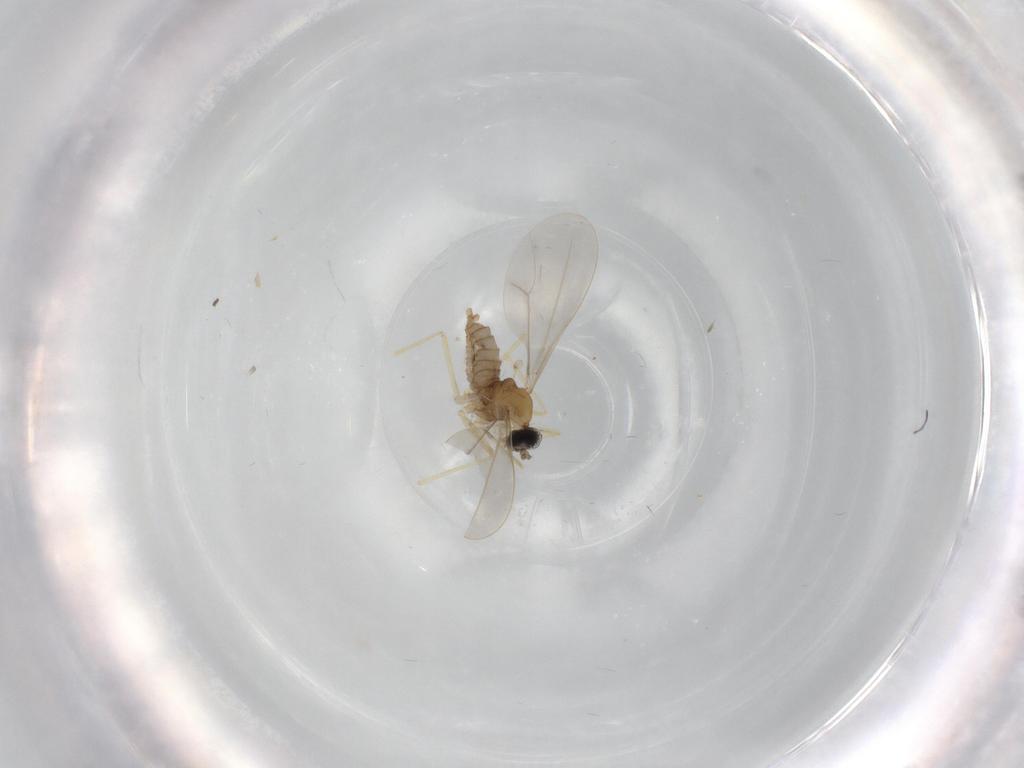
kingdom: Animalia
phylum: Arthropoda
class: Insecta
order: Diptera
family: Cecidomyiidae
